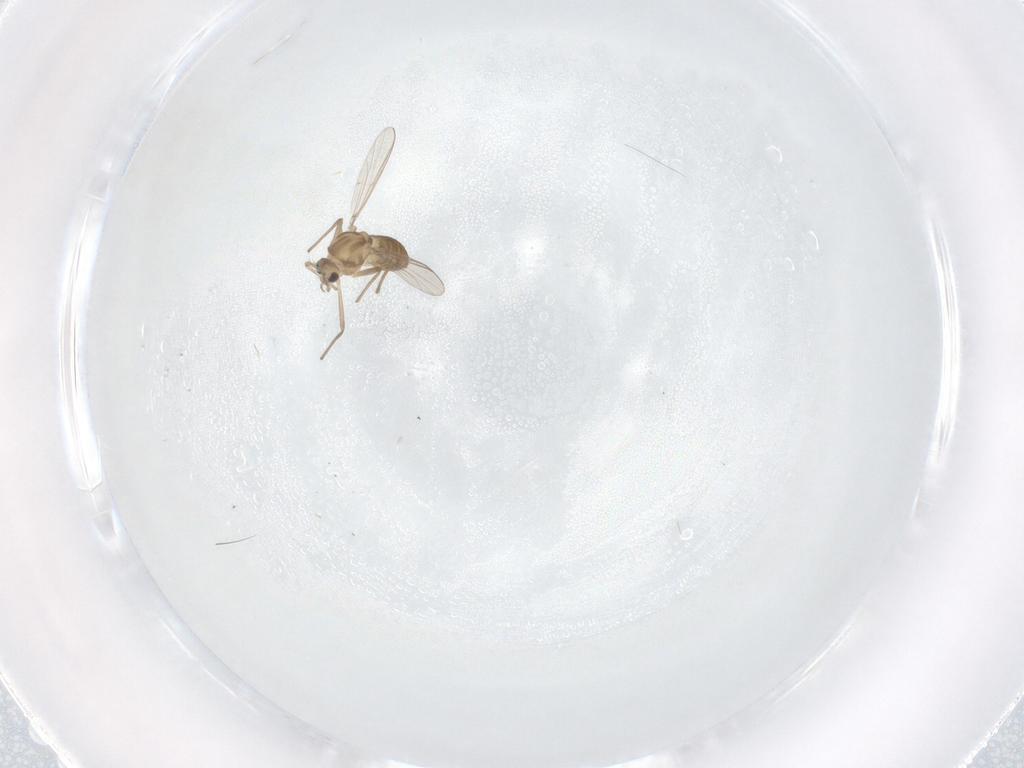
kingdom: Animalia
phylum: Arthropoda
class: Insecta
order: Diptera
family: Chironomidae
